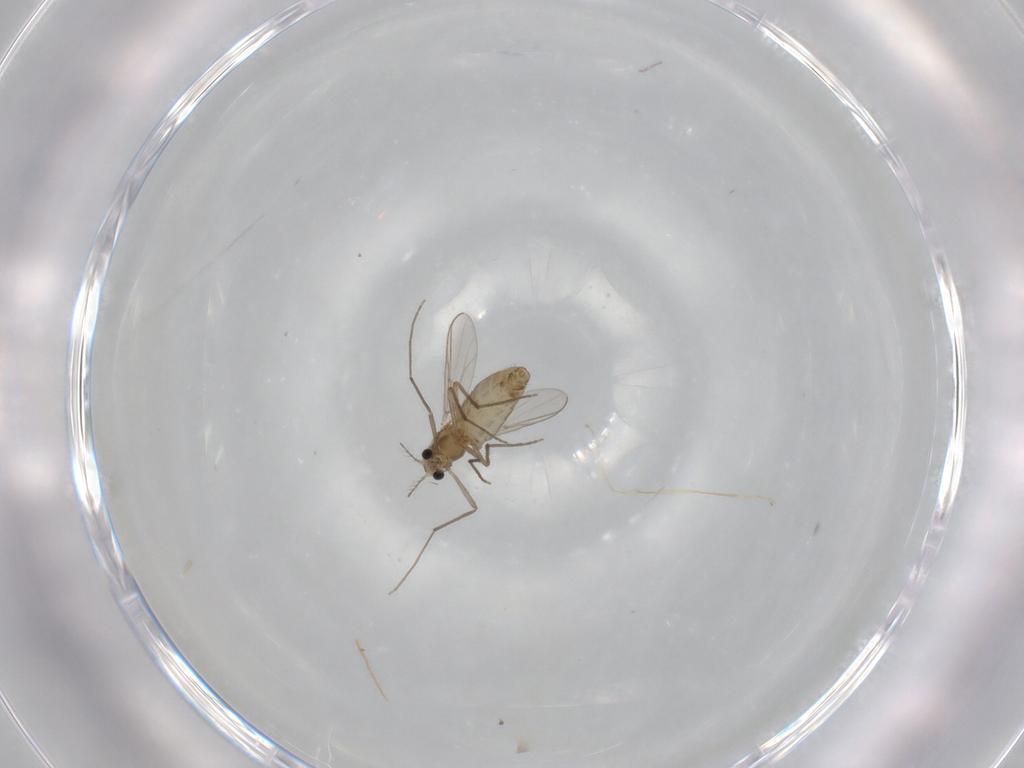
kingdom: Animalia
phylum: Arthropoda
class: Insecta
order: Diptera
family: Chironomidae
